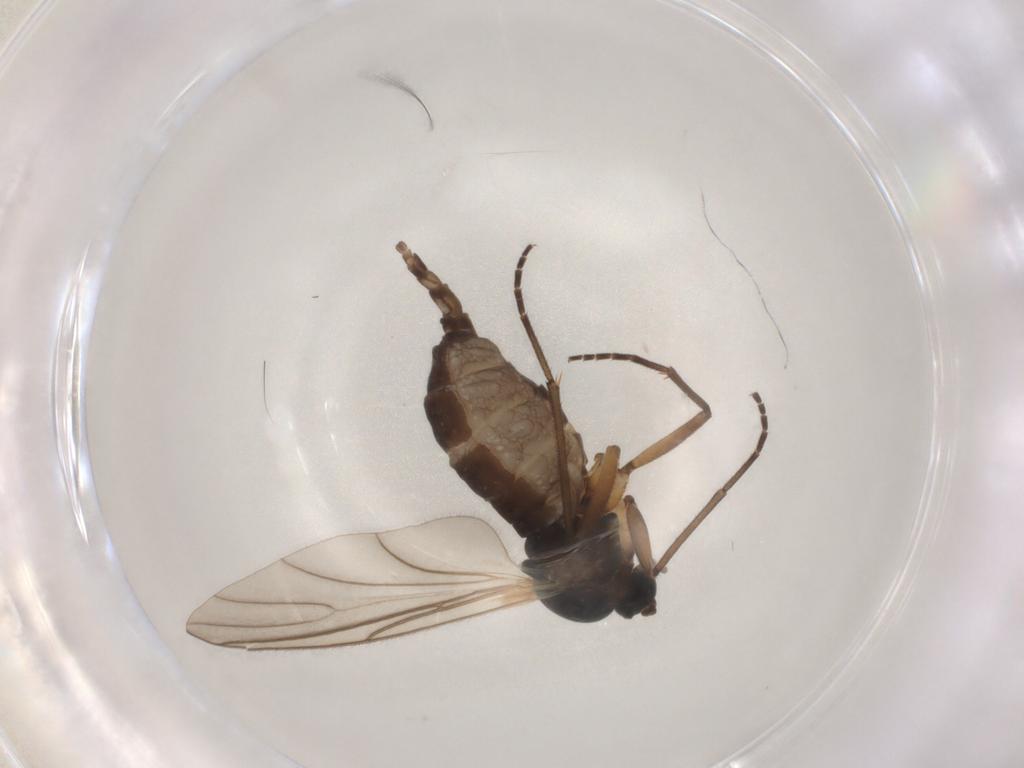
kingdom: Animalia
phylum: Arthropoda
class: Insecta
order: Diptera
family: Sciaridae
